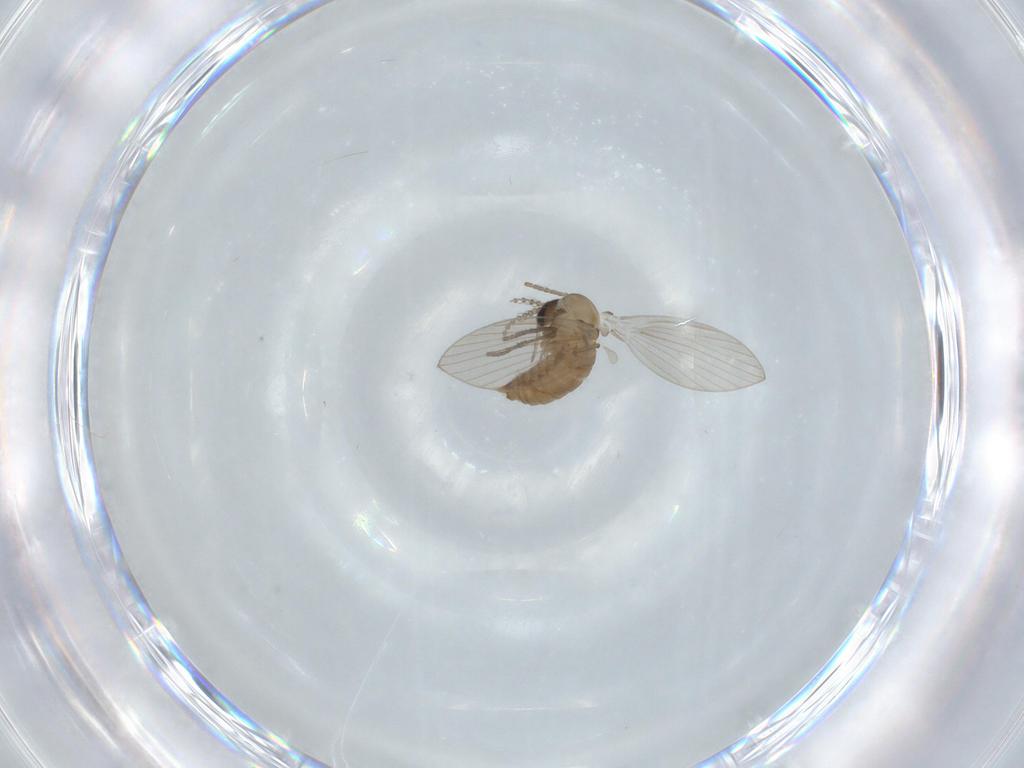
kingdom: Animalia
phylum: Arthropoda
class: Insecta
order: Diptera
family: Psychodidae
